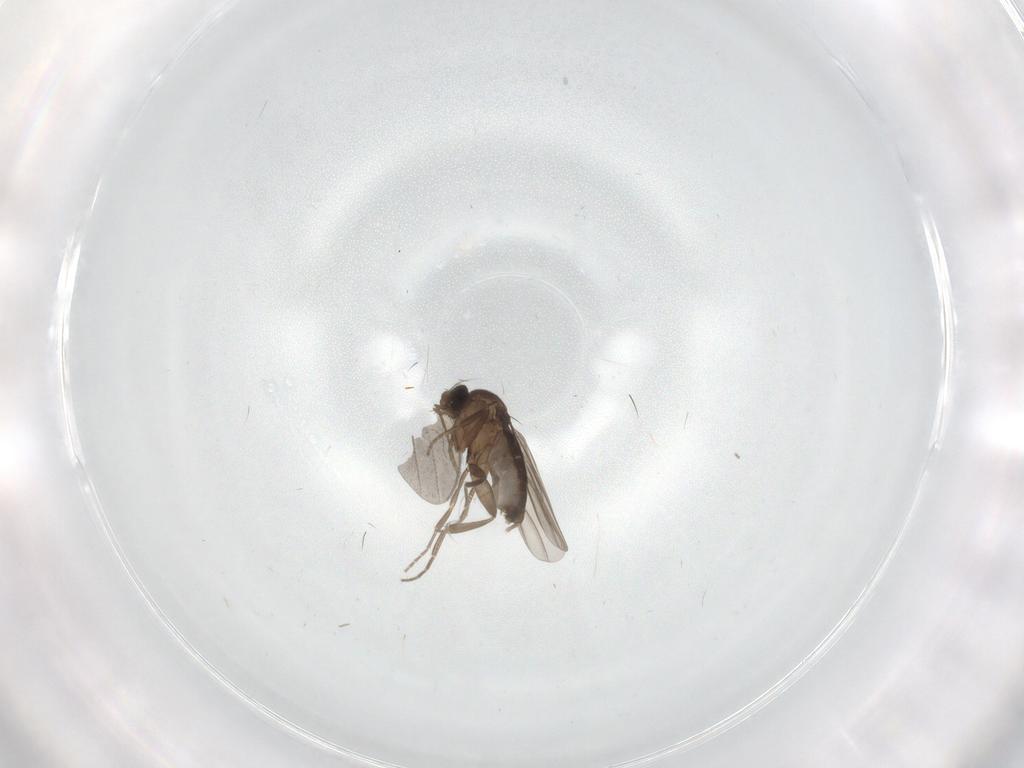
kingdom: Animalia
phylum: Arthropoda
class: Insecta
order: Diptera
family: Phoridae
